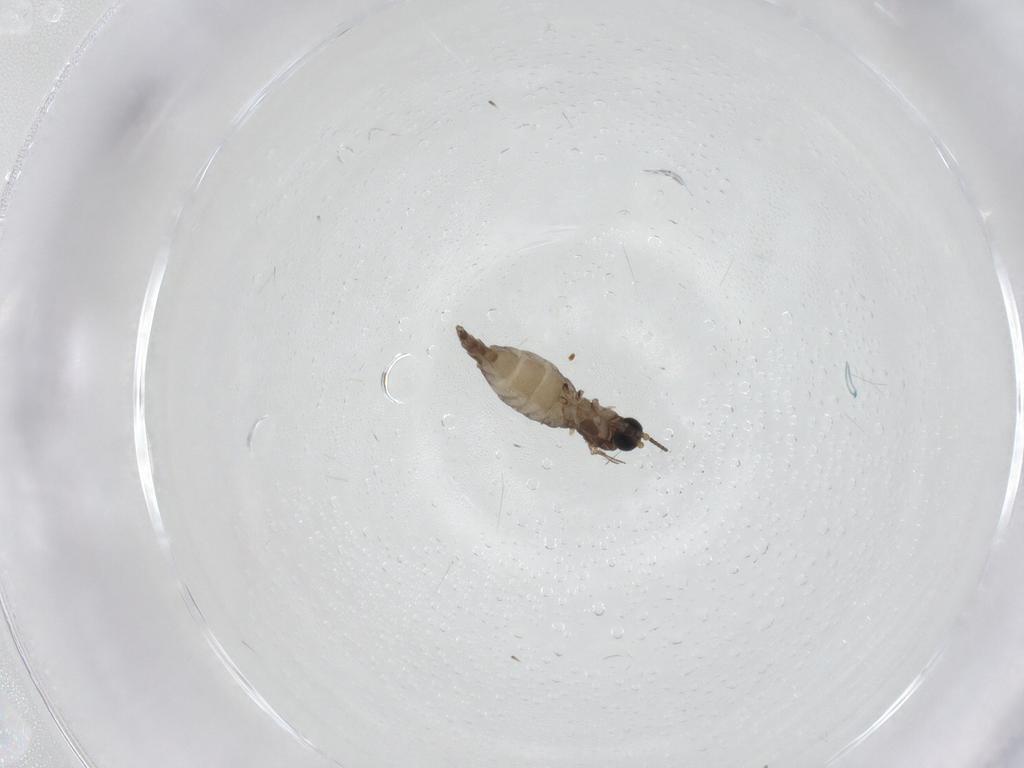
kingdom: Animalia
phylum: Arthropoda
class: Insecta
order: Diptera
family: Sciaridae
